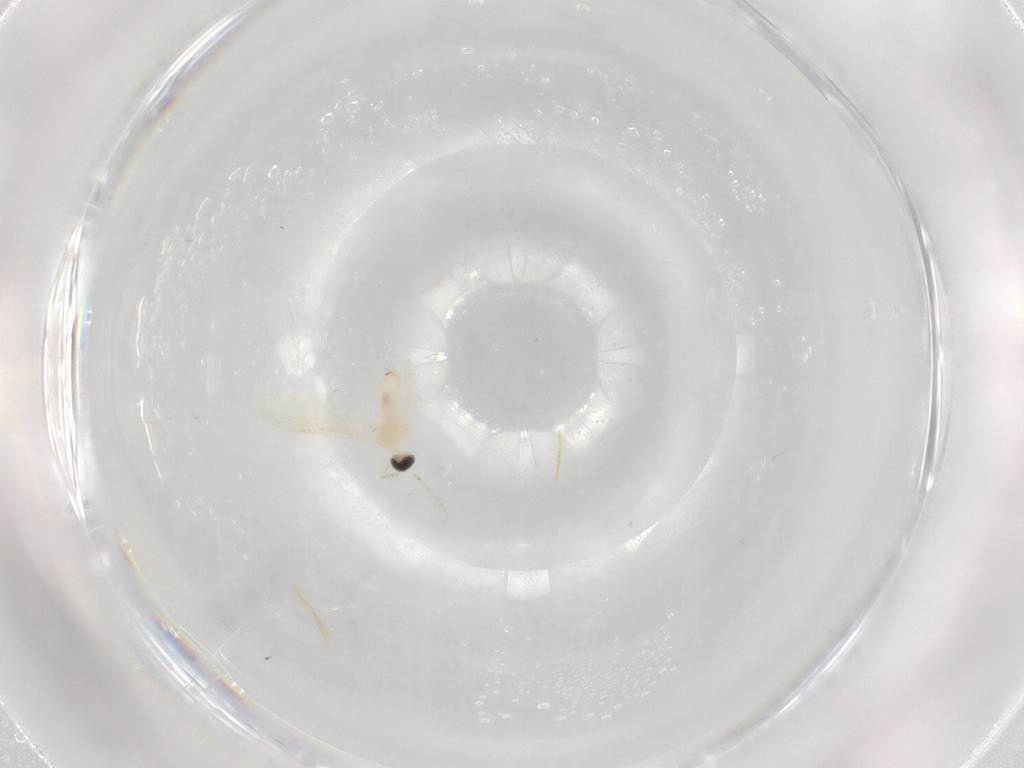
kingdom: Animalia
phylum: Arthropoda
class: Insecta
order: Diptera
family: Cecidomyiidae
